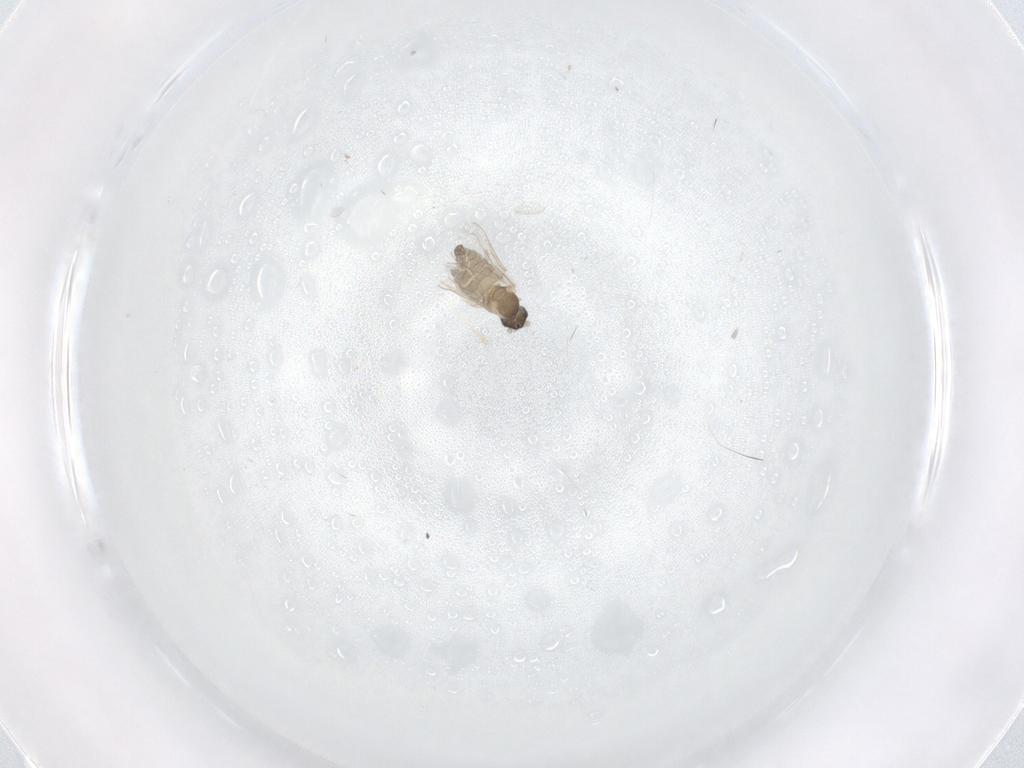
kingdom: Animalia
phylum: Arthropoda
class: Insecta
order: Diptera
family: Cecidomyiidae
